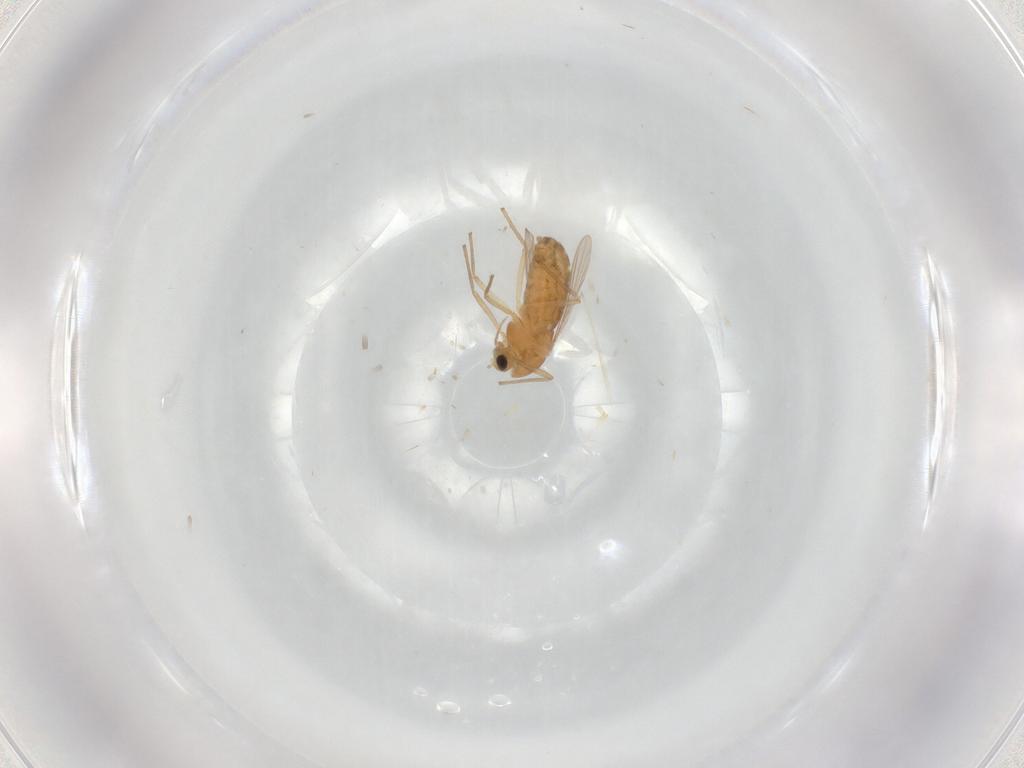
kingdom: Animalia
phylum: Arthropoda
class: Insecta
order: Diptera
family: Chironomidae
